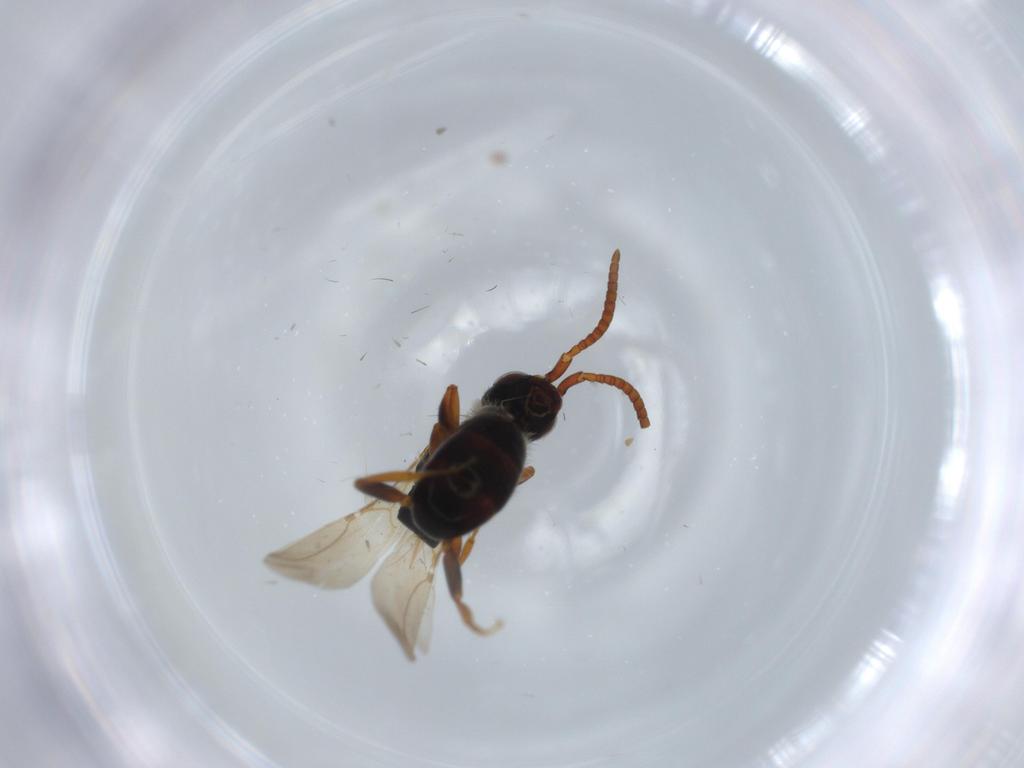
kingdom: Animalia
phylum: Arthropoda
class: Insecta
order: Hymenoptera
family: Bethylidae
